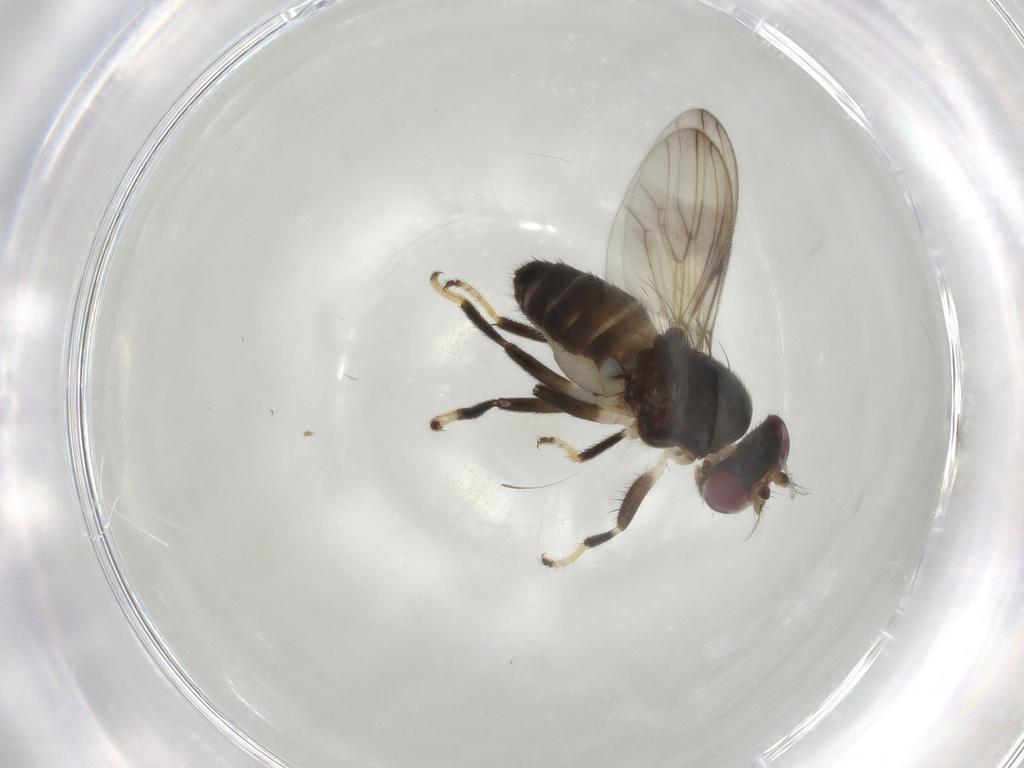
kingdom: Animalia
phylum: Arthropoda
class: Insecta
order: Diptera
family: Periscelididae
